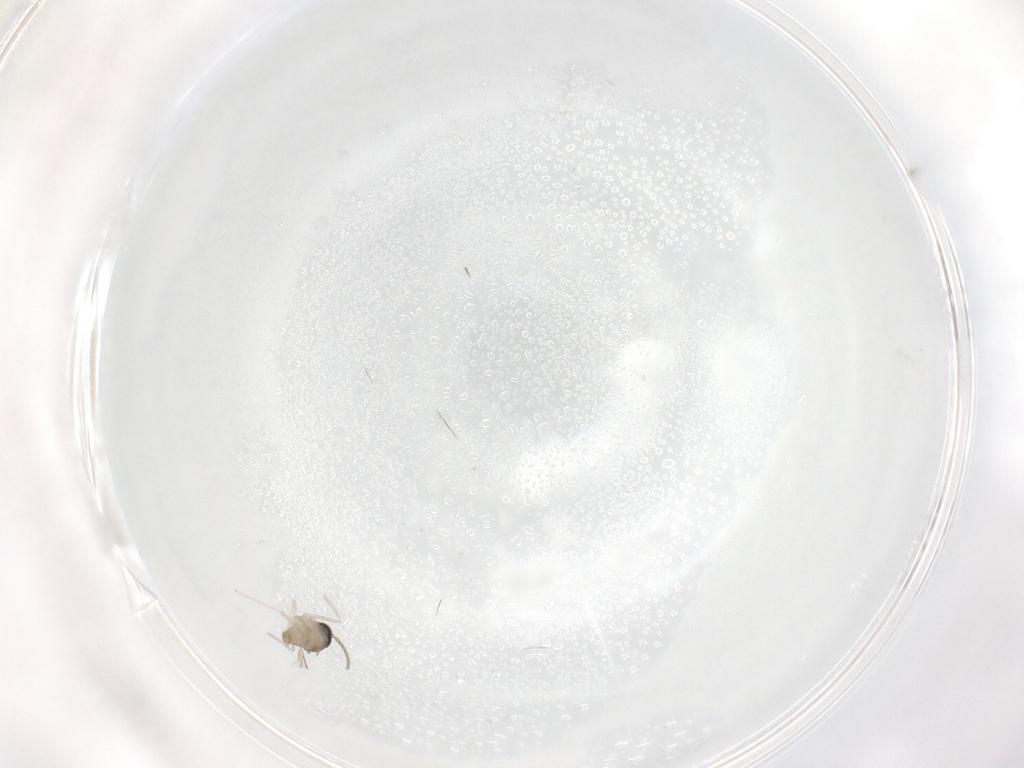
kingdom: Animalia
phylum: Arthropoda
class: Insecta
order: Diptera
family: Cecidomyiidae
